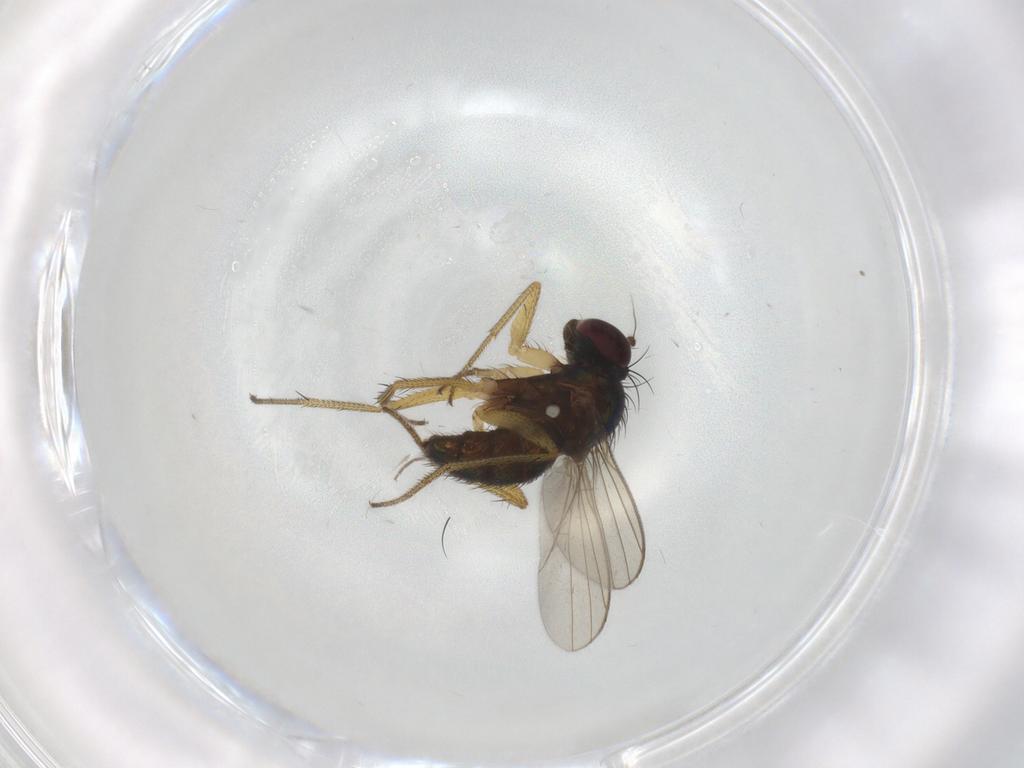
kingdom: Animalia
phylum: Arthropoda
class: Insecta
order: Diptera
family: Dolichopodidae
